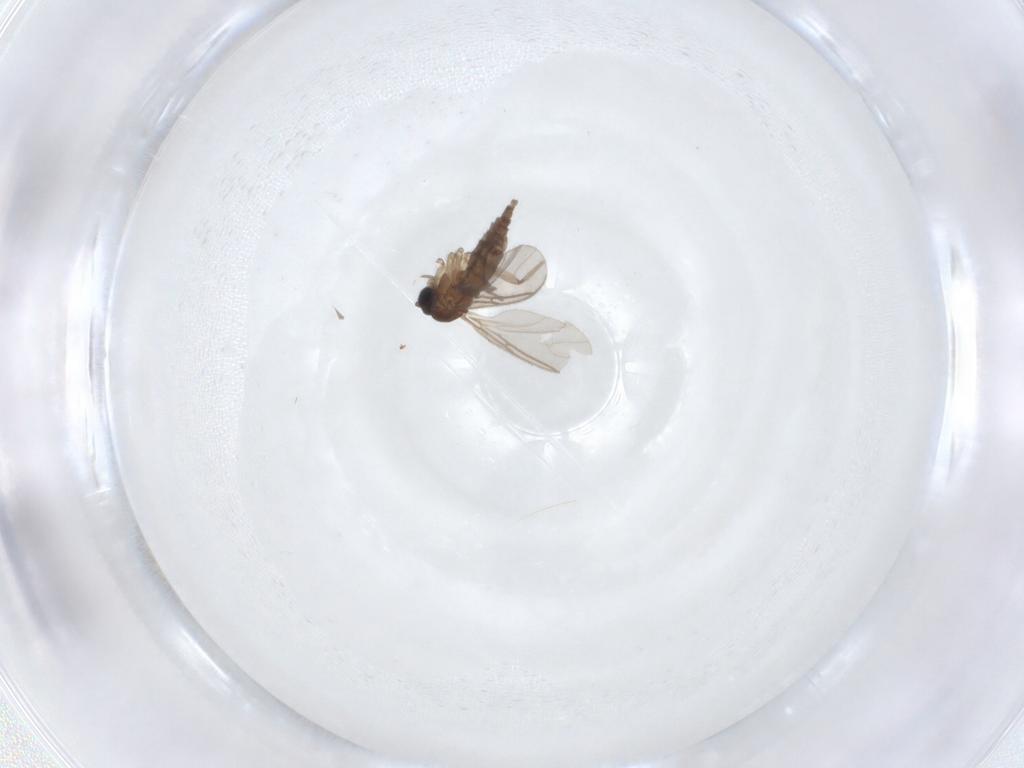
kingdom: Animalia
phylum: Arthropoda
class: Insecta
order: Diptera
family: Sciaridae
